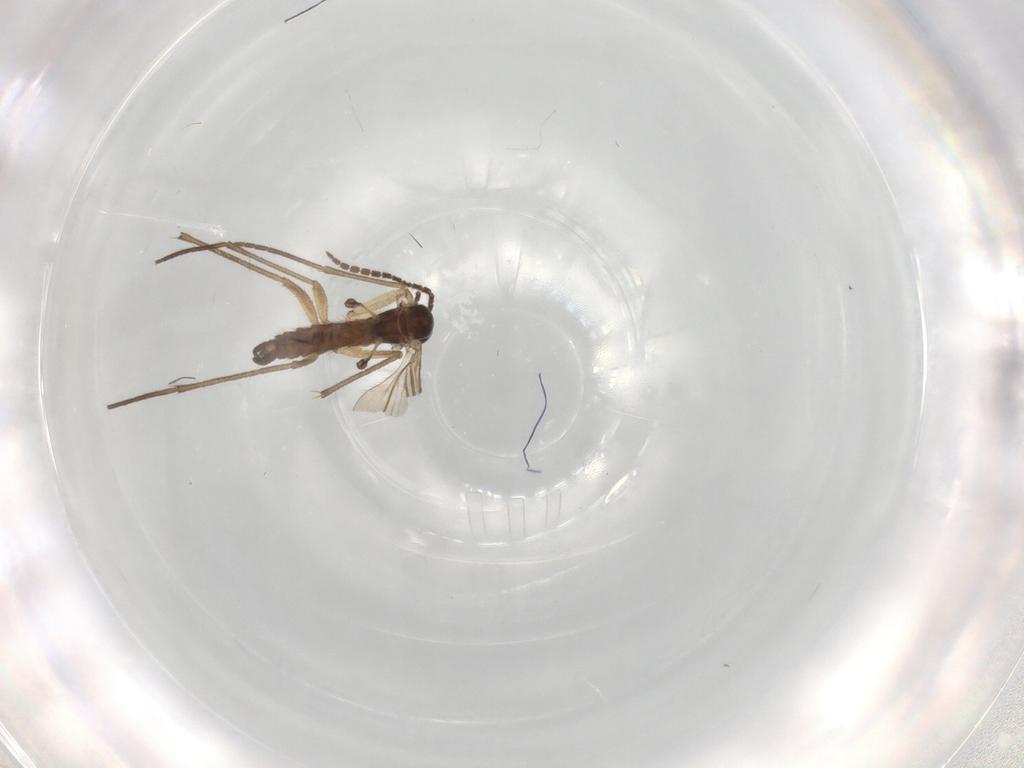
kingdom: Animalia
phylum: Arthropoda
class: Insecta
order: Diptera
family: Sciaridae
